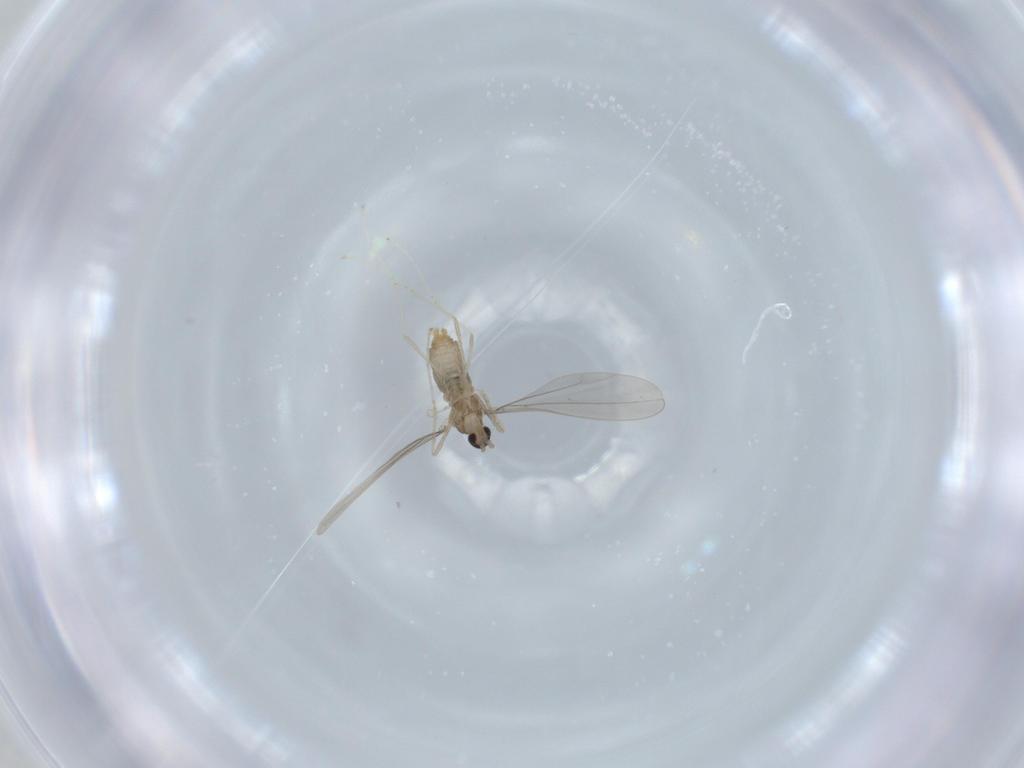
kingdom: Animalia
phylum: Arthropoda
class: Insecta
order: Diptera
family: Cecidomyiidae
